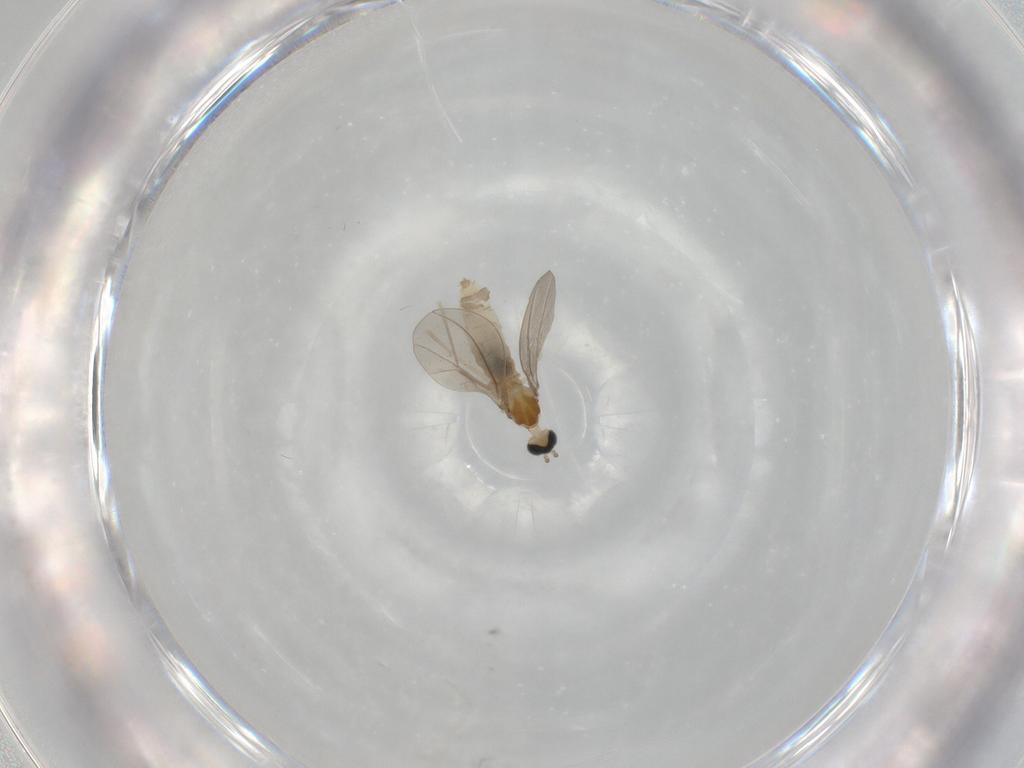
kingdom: Animalia
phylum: Arthropoda
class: Insecta
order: Diptera
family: Cecidomyiidae
